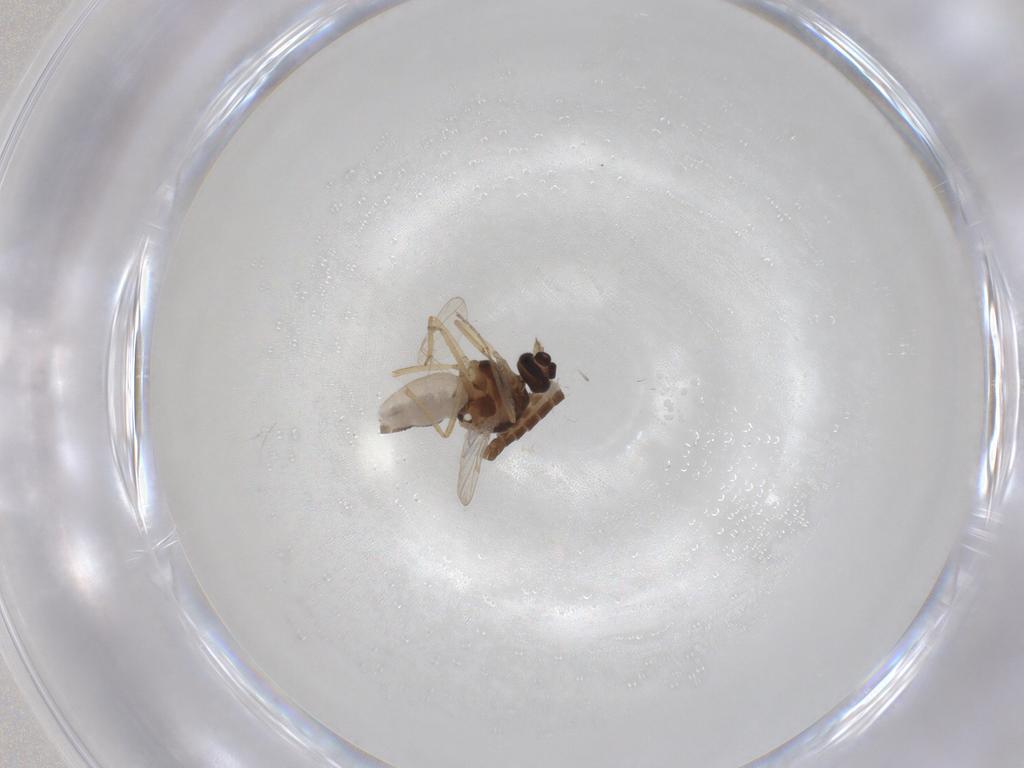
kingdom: Animalia
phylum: Arthropoda
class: Insecta
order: Diptera
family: Ceratopogonidae
